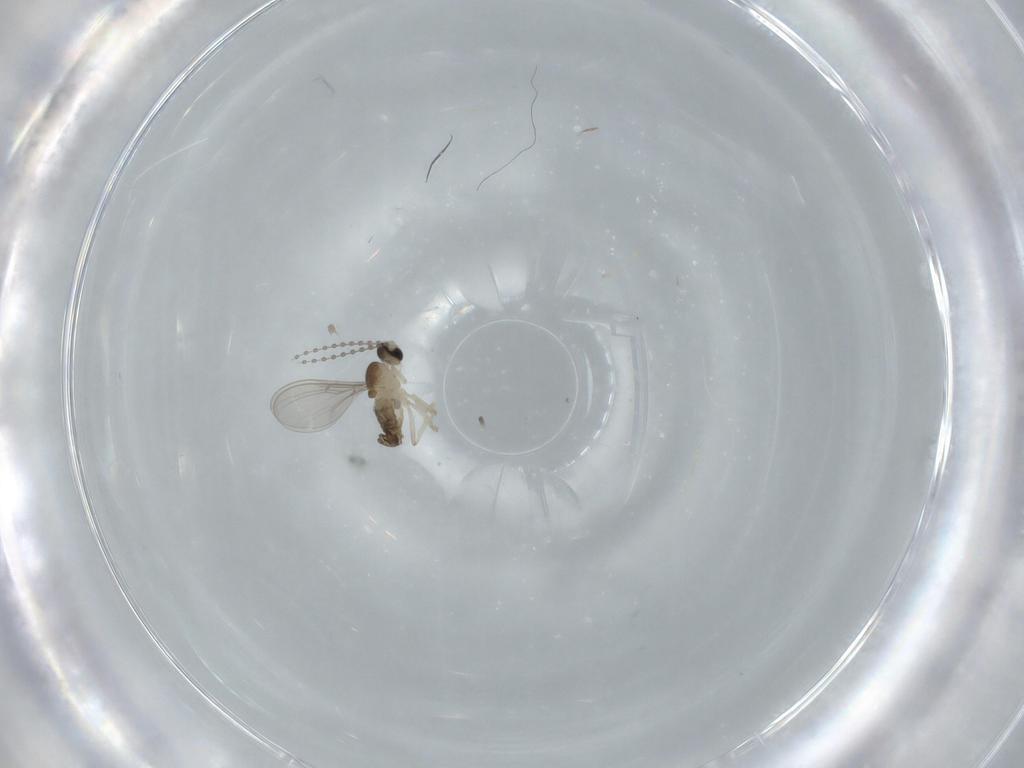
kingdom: Animalia
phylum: Arthropoda
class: Insecta
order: Diptera
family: Cecidomyiidae
